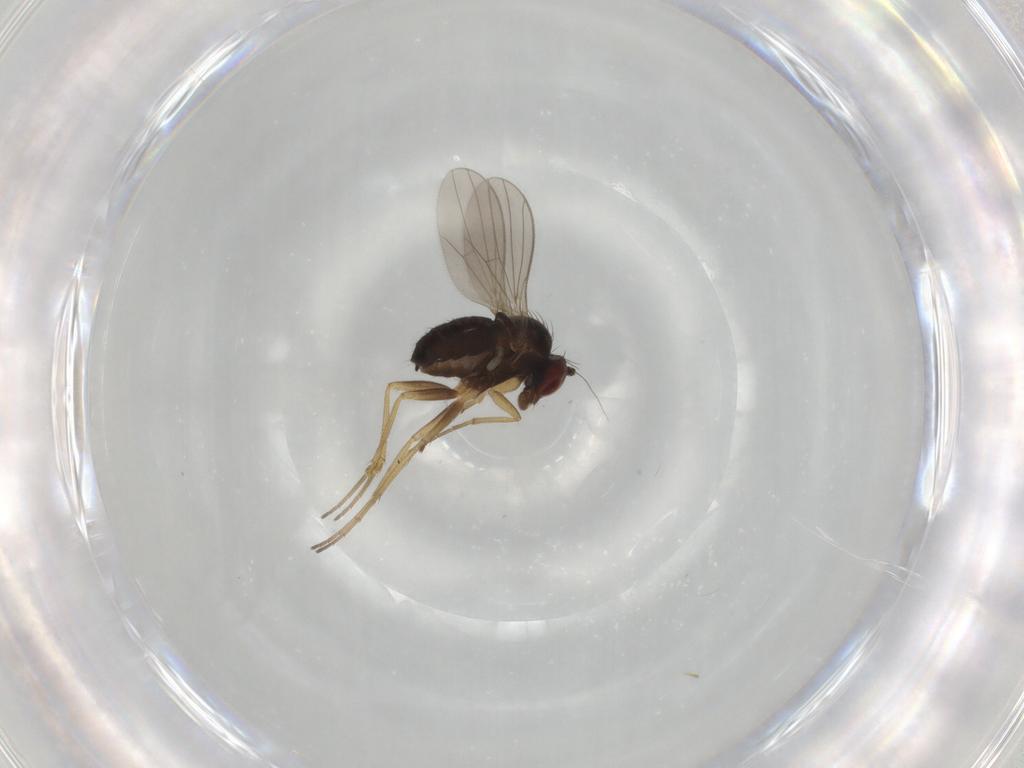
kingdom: Animalia
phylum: Arthropoda
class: Insecta
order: Diptera
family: Dolichopodidae
